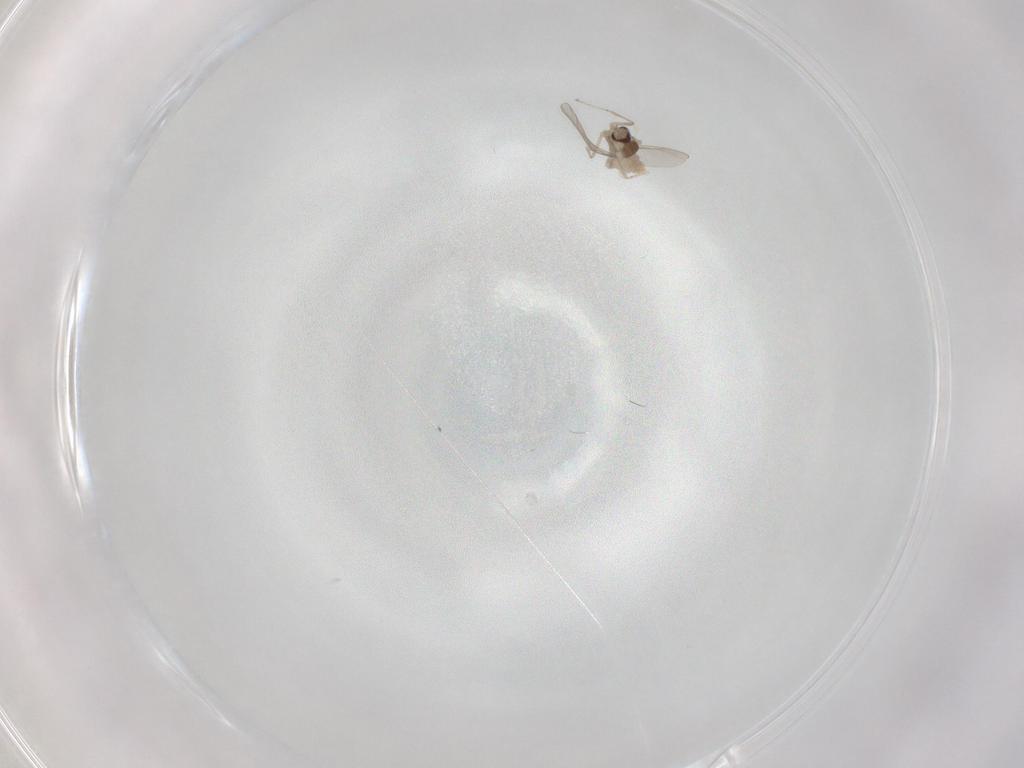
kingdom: Animalia
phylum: Arthropoda
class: Insecta
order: Diptera
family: Cecidomyiidae
